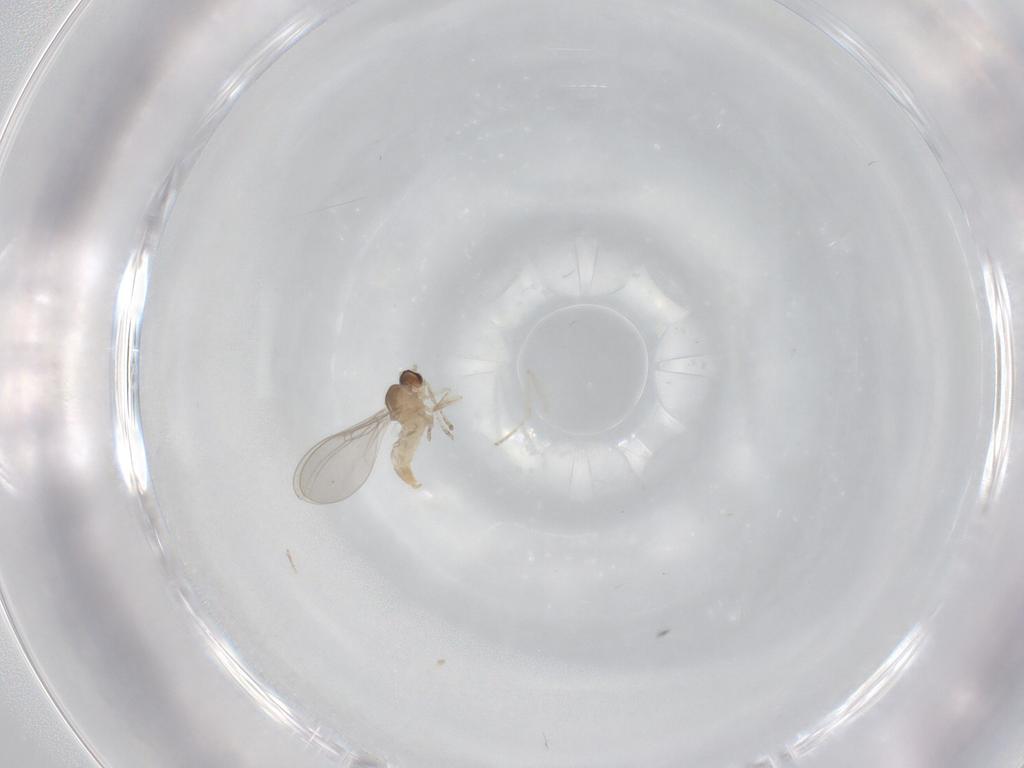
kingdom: Animalia
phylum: Arthropoda
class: Insecta
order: Diptera
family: Cecidomyiidae
